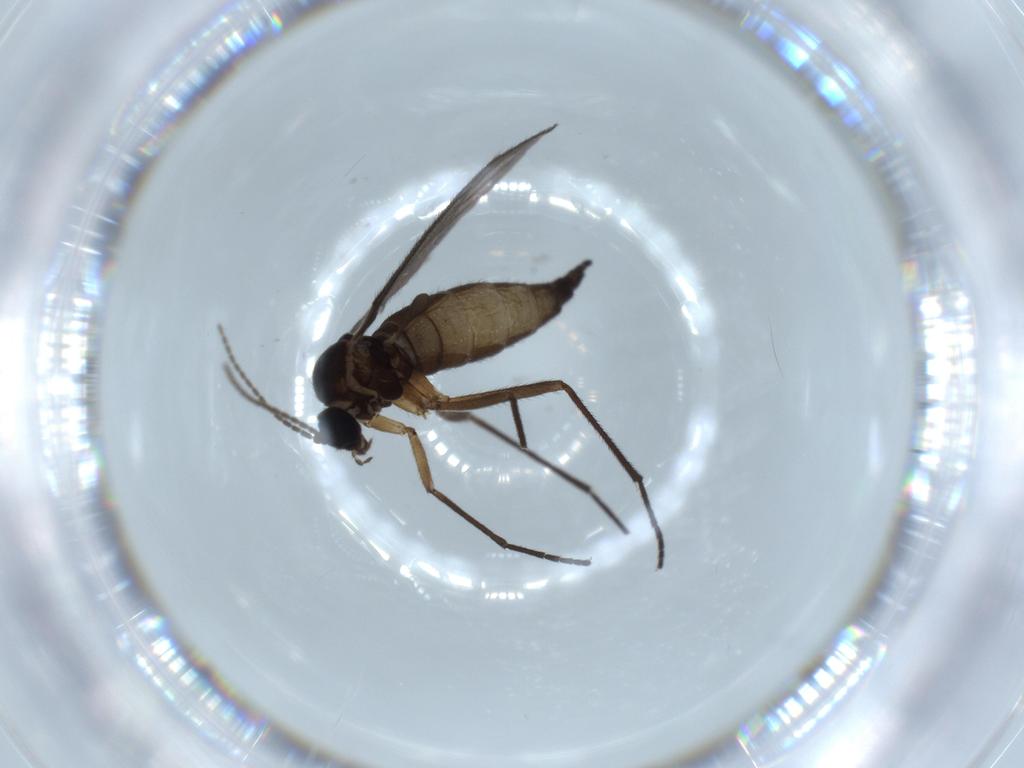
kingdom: Animalia
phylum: Arthropoda
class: Insecta
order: Diptera
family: Sciaridae
